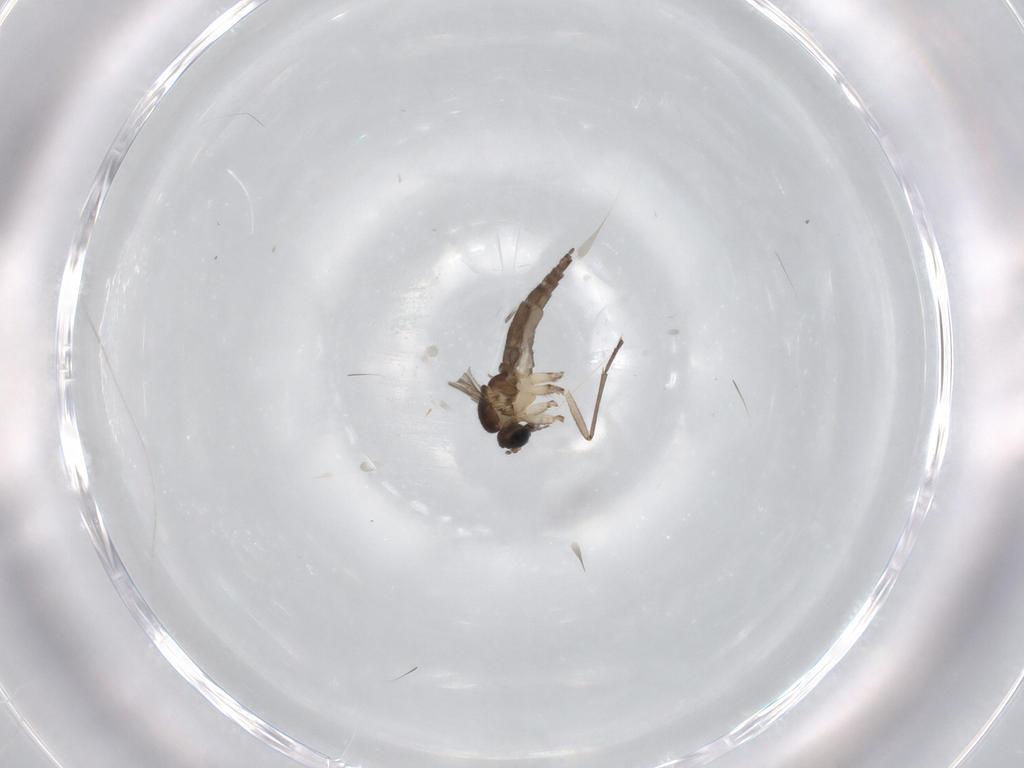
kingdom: Animalia
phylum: Arthropoda
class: Insecta
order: Diptera
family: Sciaridae
